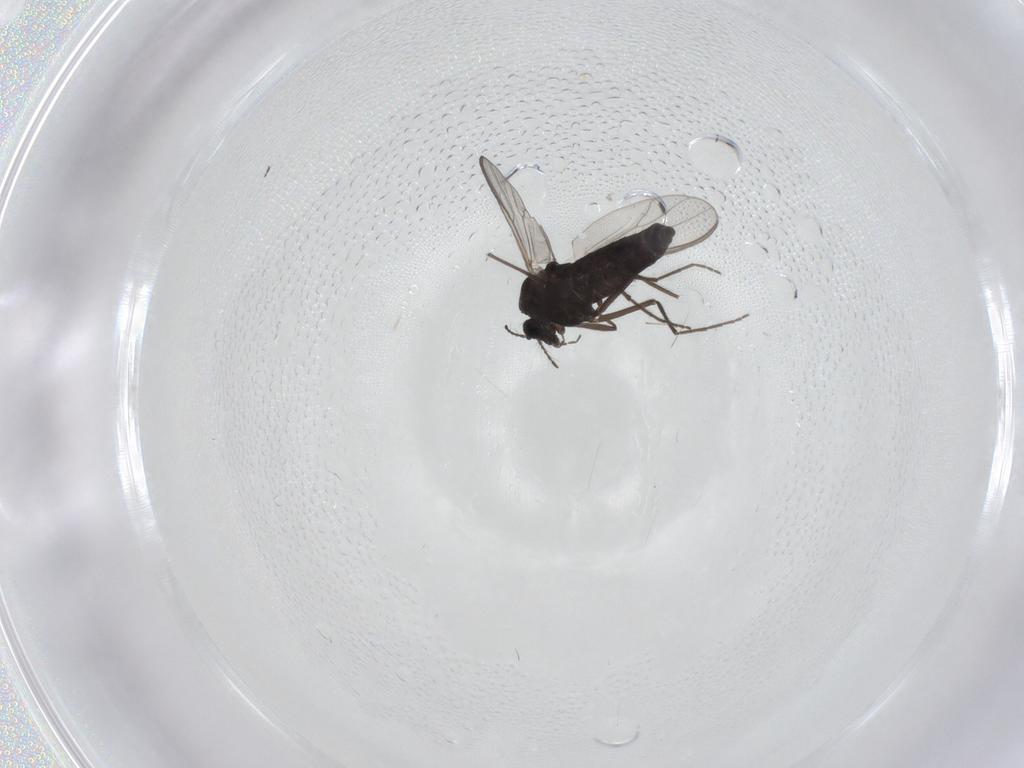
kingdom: Animalia
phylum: Arthropoda
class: Insecta
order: Diptera
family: Chironomidae
